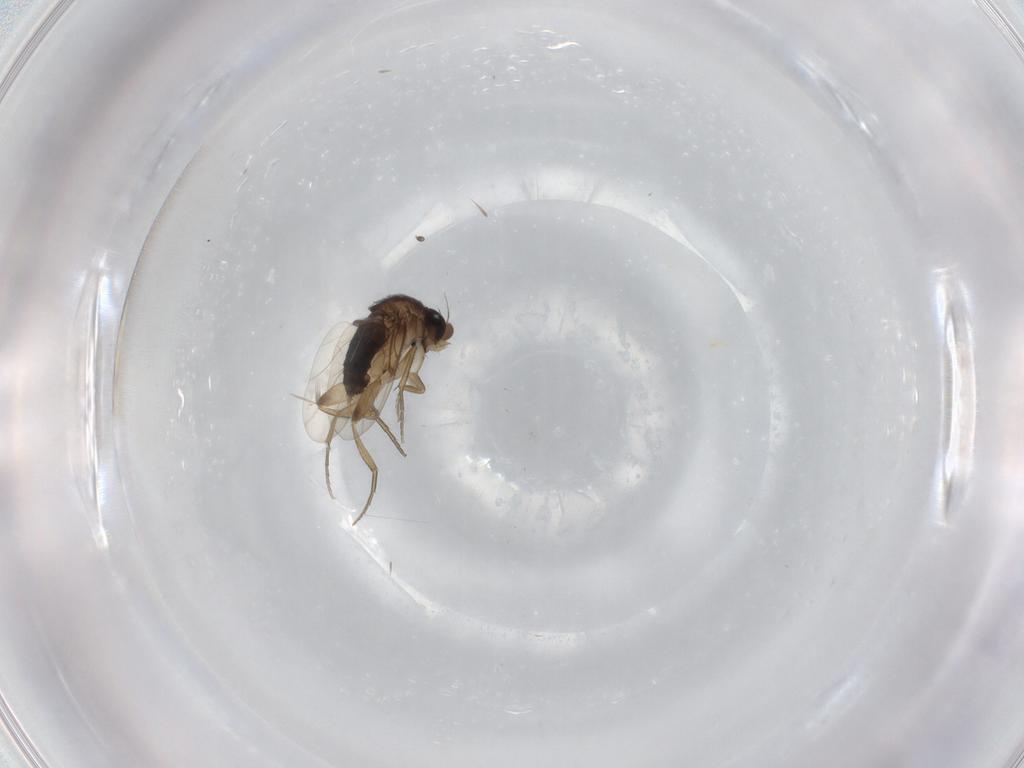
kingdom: Animalia
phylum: Arthropoda
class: Insecta
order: Diptera
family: Phoridae
